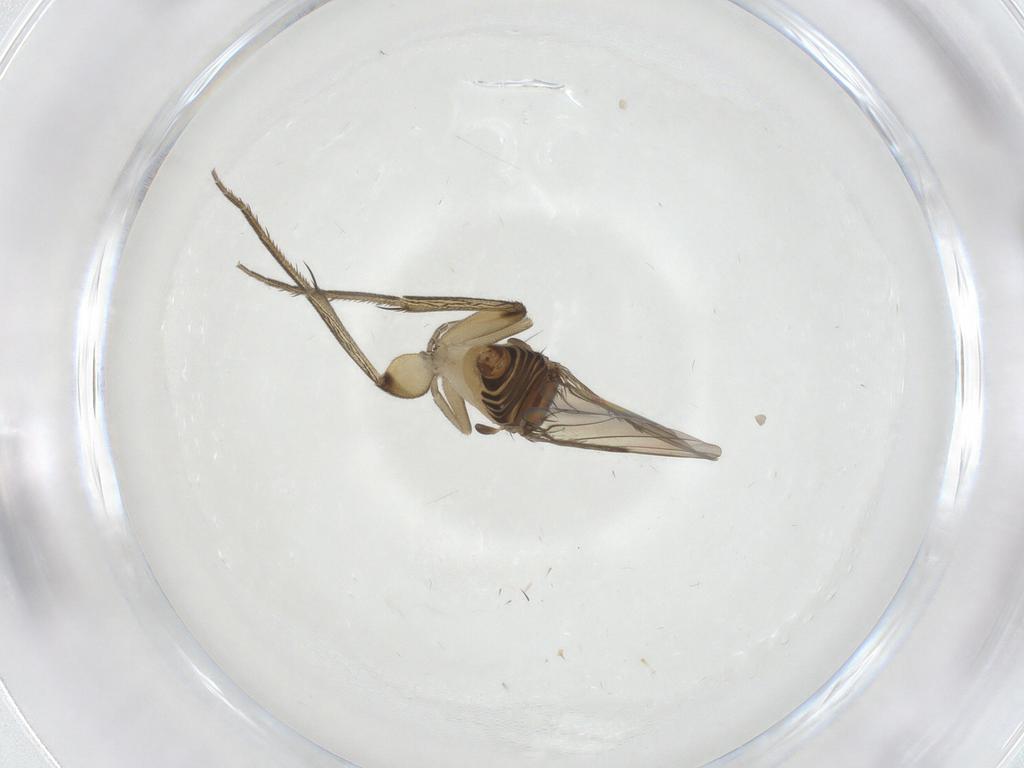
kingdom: Animalia
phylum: Arthropoda
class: Insecta
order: Diptera
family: Phoridae
